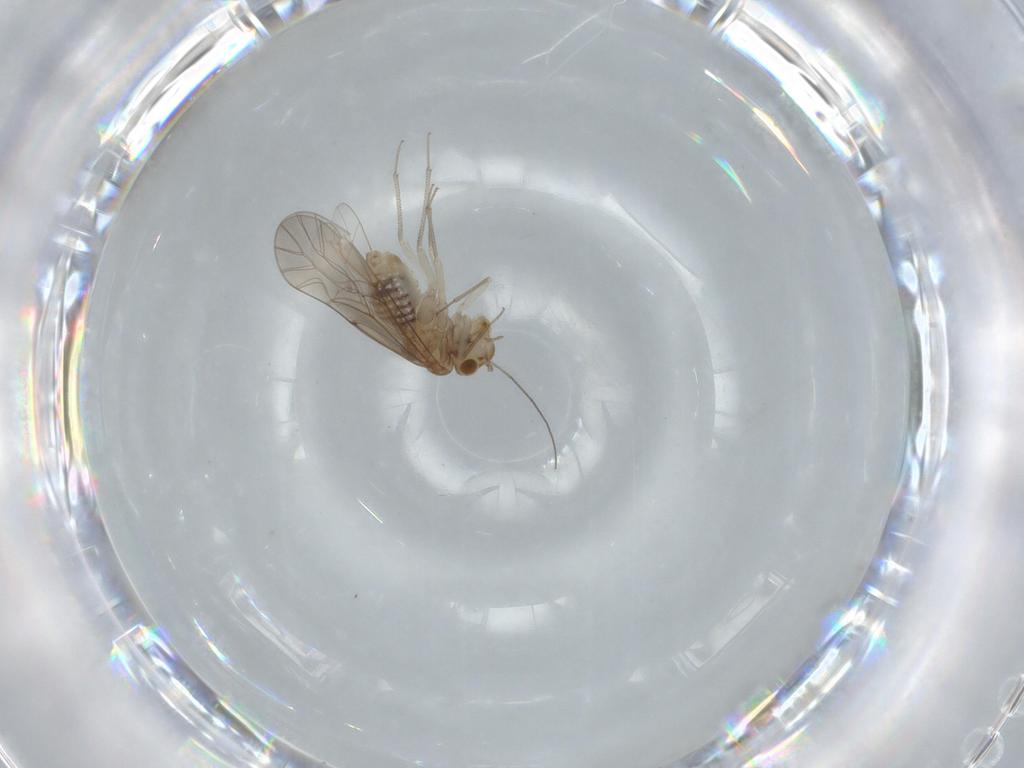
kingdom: Animalia
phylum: Arthropoda
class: Insecta
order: Psocodea
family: Lachesillidae
